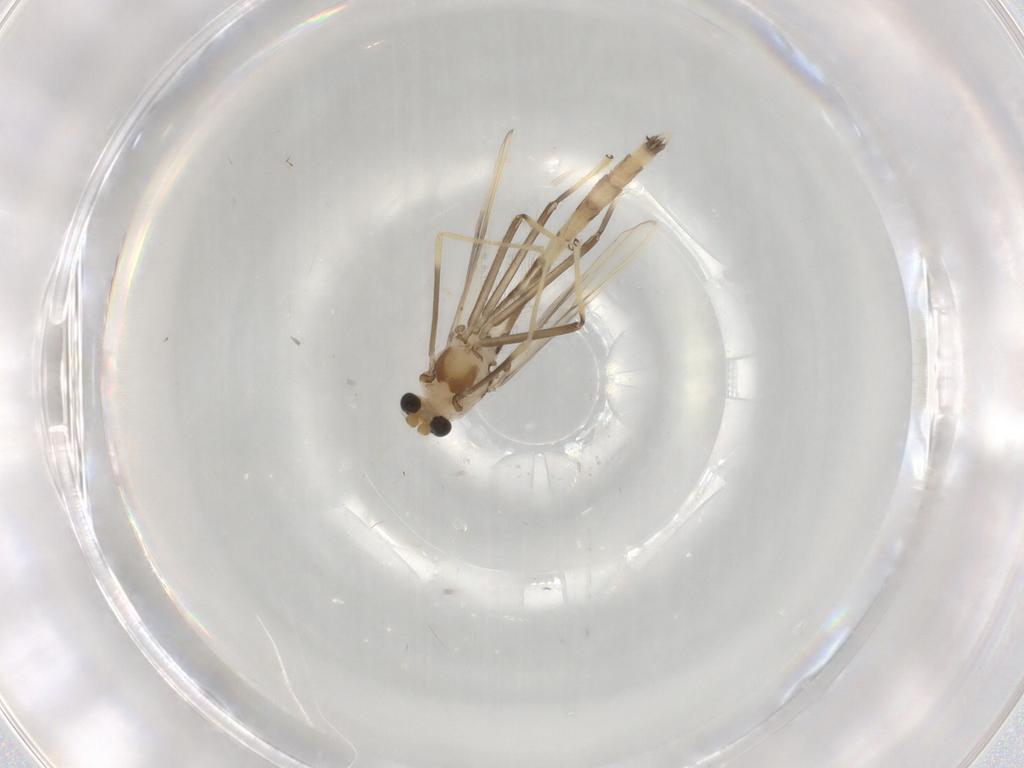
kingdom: Animalia
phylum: Arthropoda
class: Insecta
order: Diptera
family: Chironomidae
